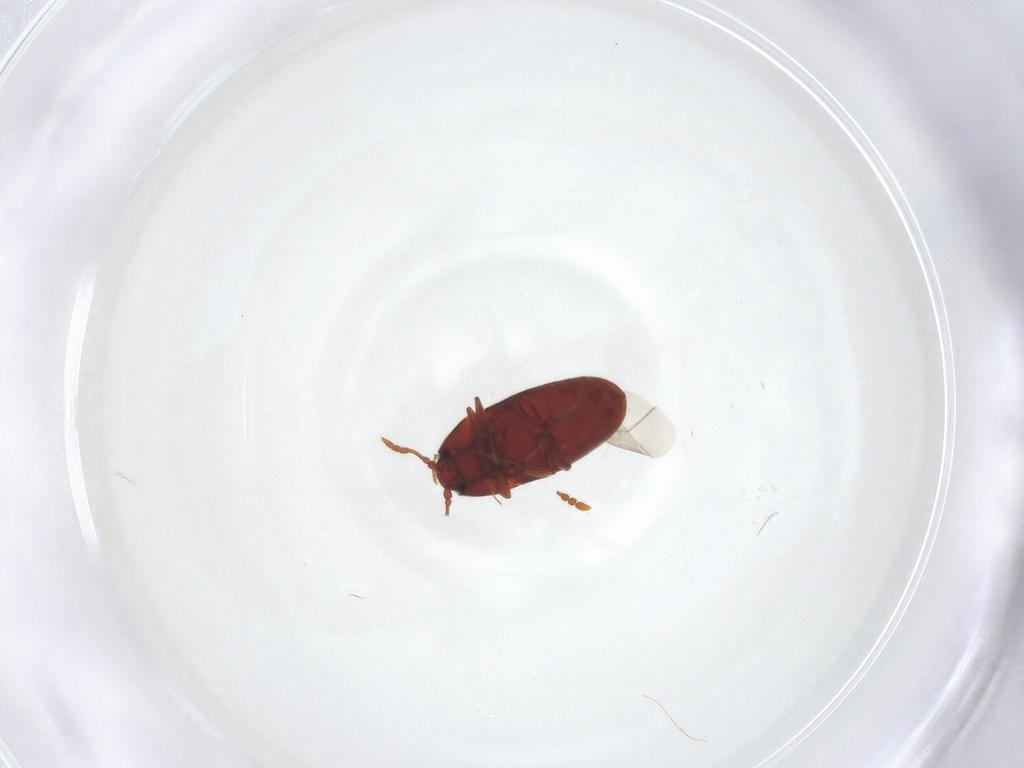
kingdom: Animalia
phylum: Arthropoda
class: Insecta
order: Coleoptera
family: Throscidae
